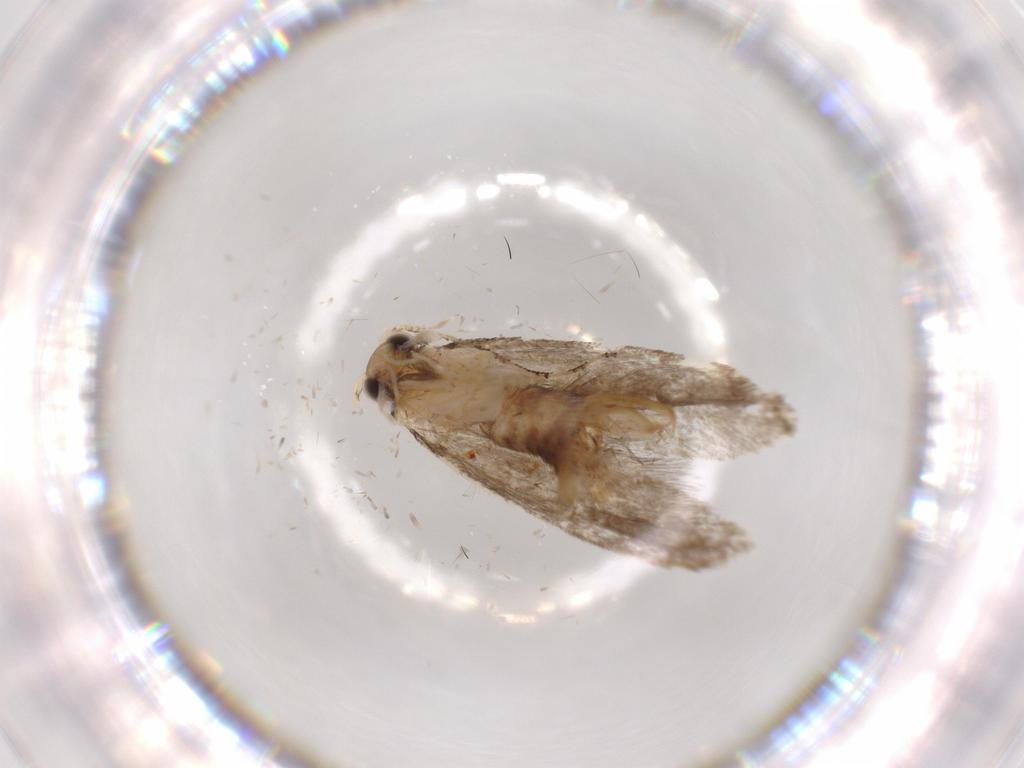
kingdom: Animalia
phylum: Arthropoda
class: Insecta
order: Lepidoptera
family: Tineidae
